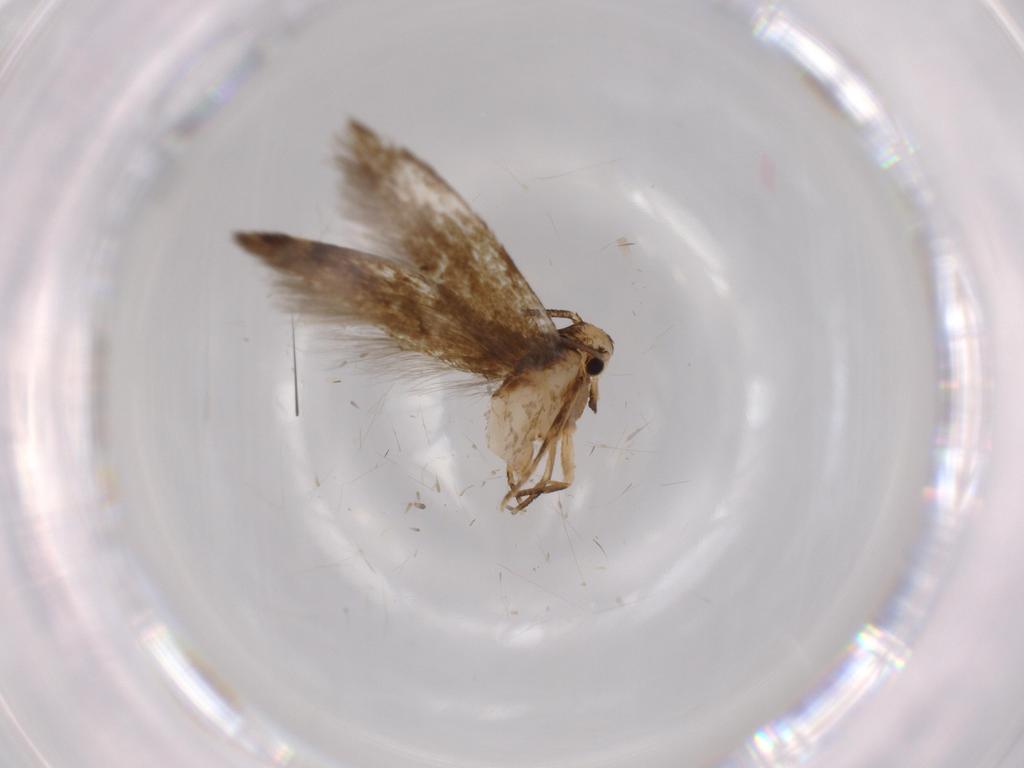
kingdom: Animalia
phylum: Arthropoda
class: Insecta
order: Lepidoptera
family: Tineidae
